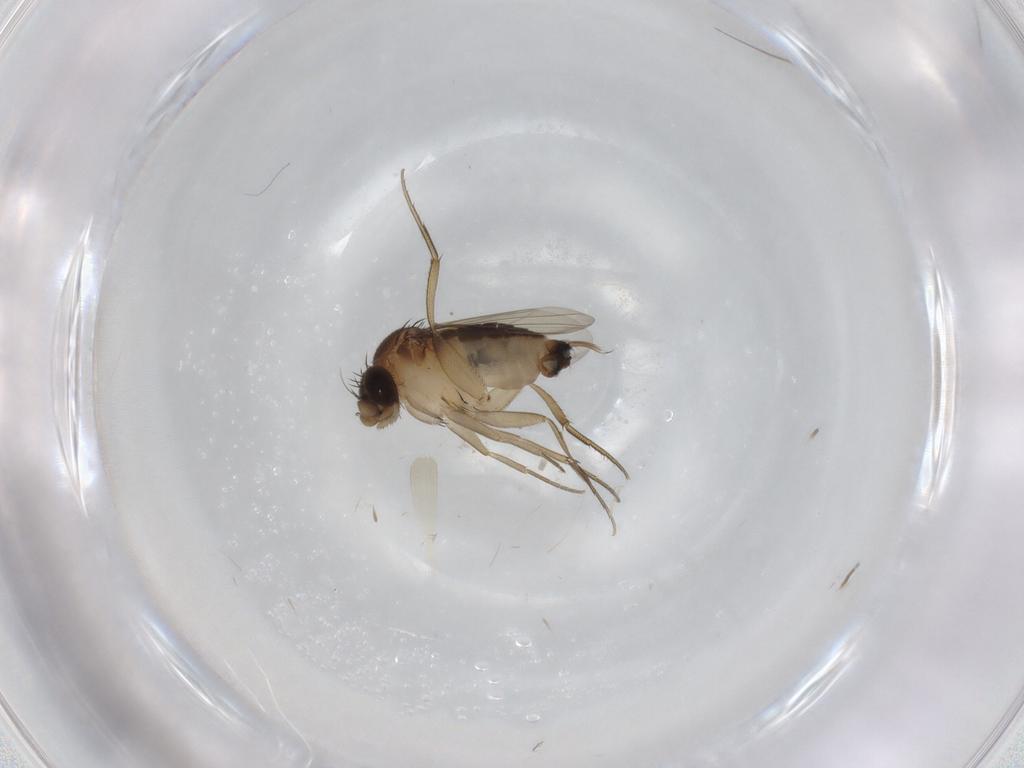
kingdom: Animalia
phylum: Arthropoda
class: Insecta
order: Diptera
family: Phoridae
